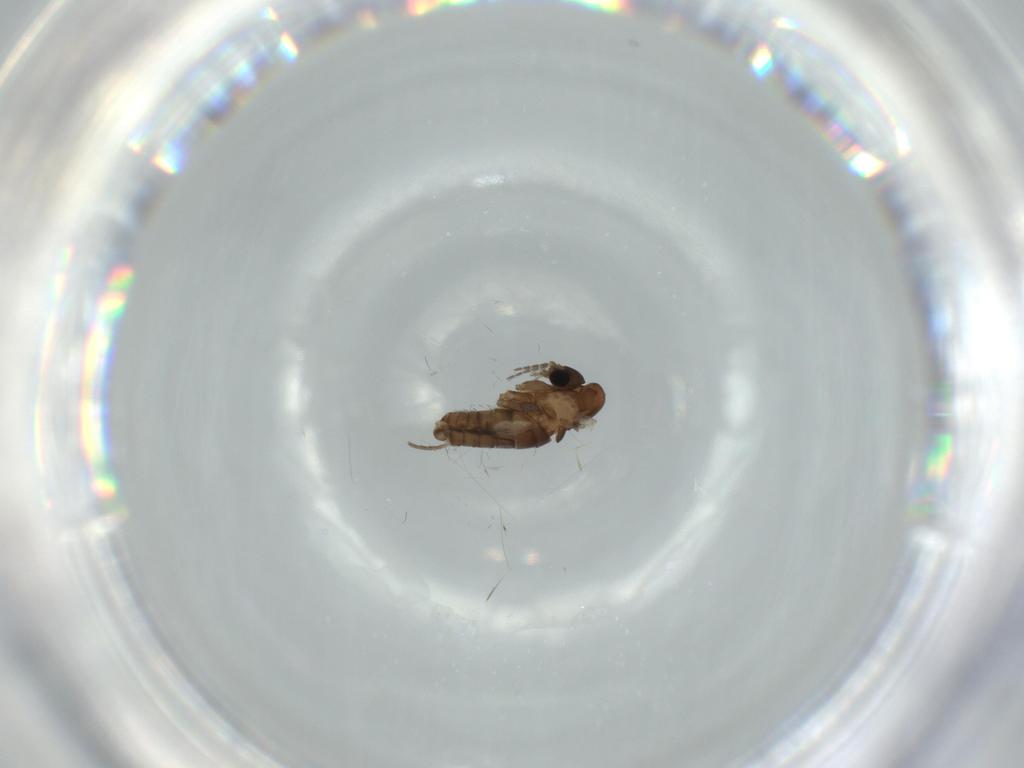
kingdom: Animalia
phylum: Arthropoda
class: Insecta
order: Diptera
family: Psychodidae
